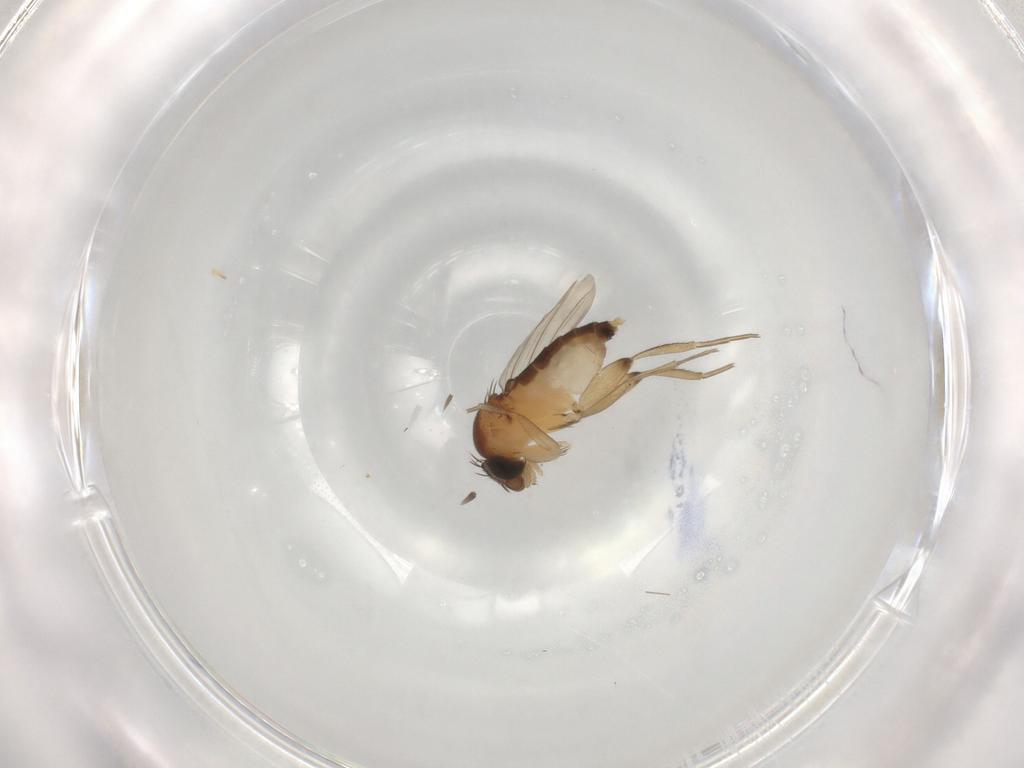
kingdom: Animalia
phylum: Arthropoda
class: Insecta
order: Diptera
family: Phoridae
